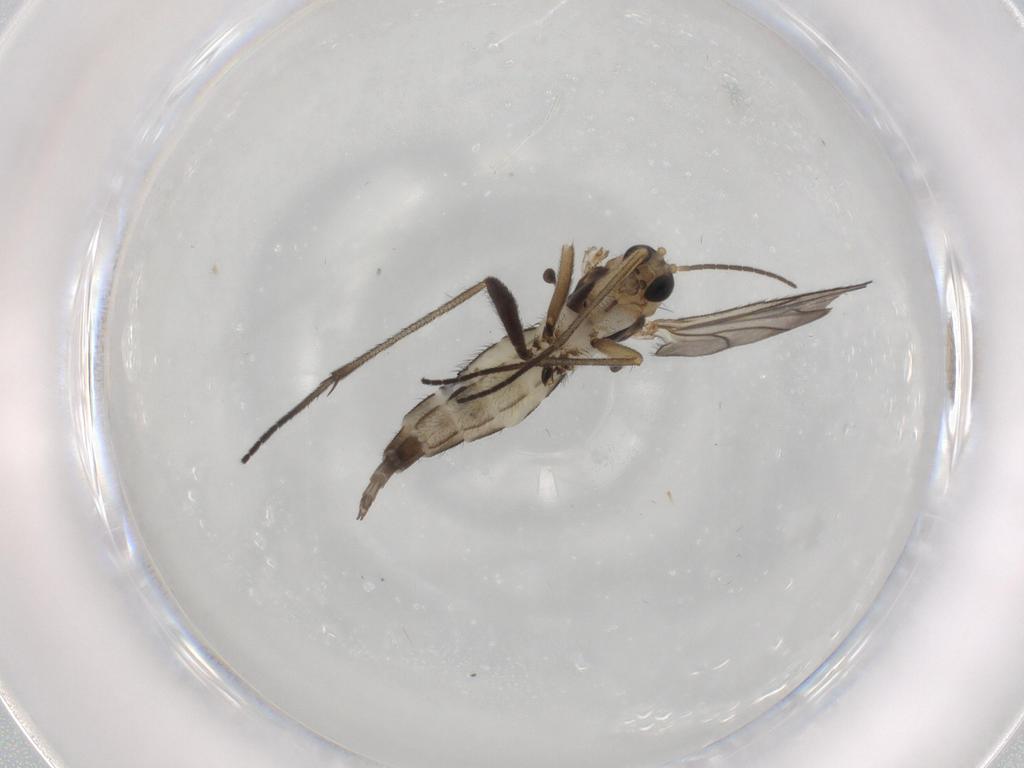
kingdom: Animalia
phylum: Arthropoda
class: Insecta
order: Diptera
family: Sciaridae
